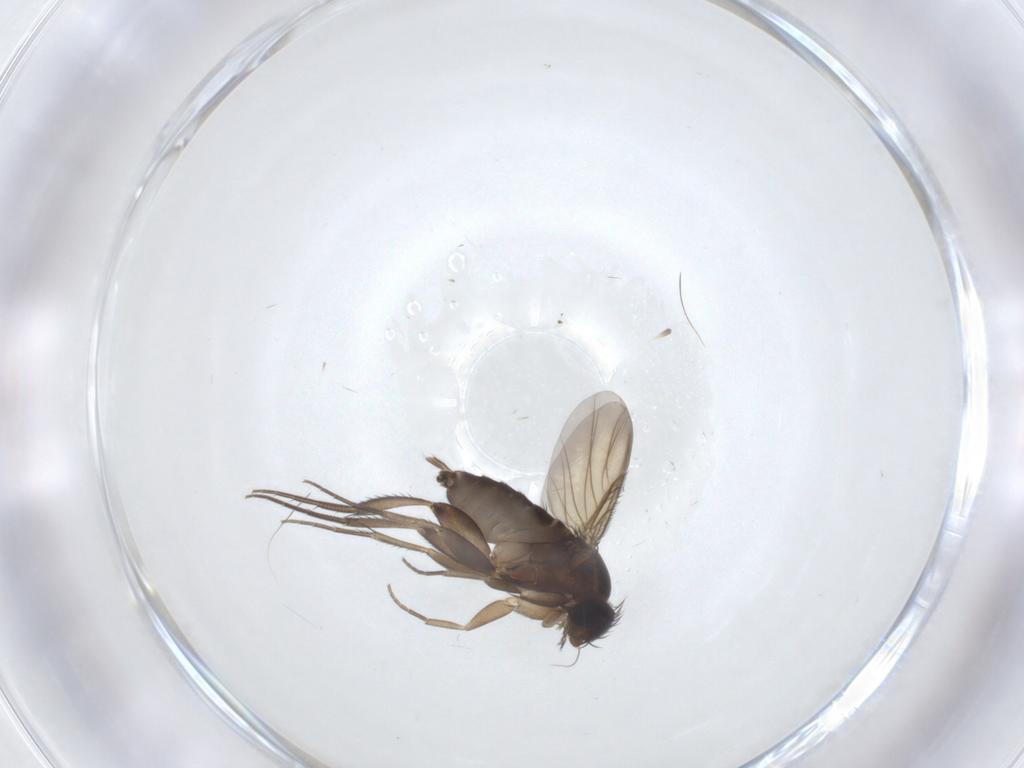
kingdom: Animalia
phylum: Arthropoda
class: Insecta
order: Diptera
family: Phoridae
